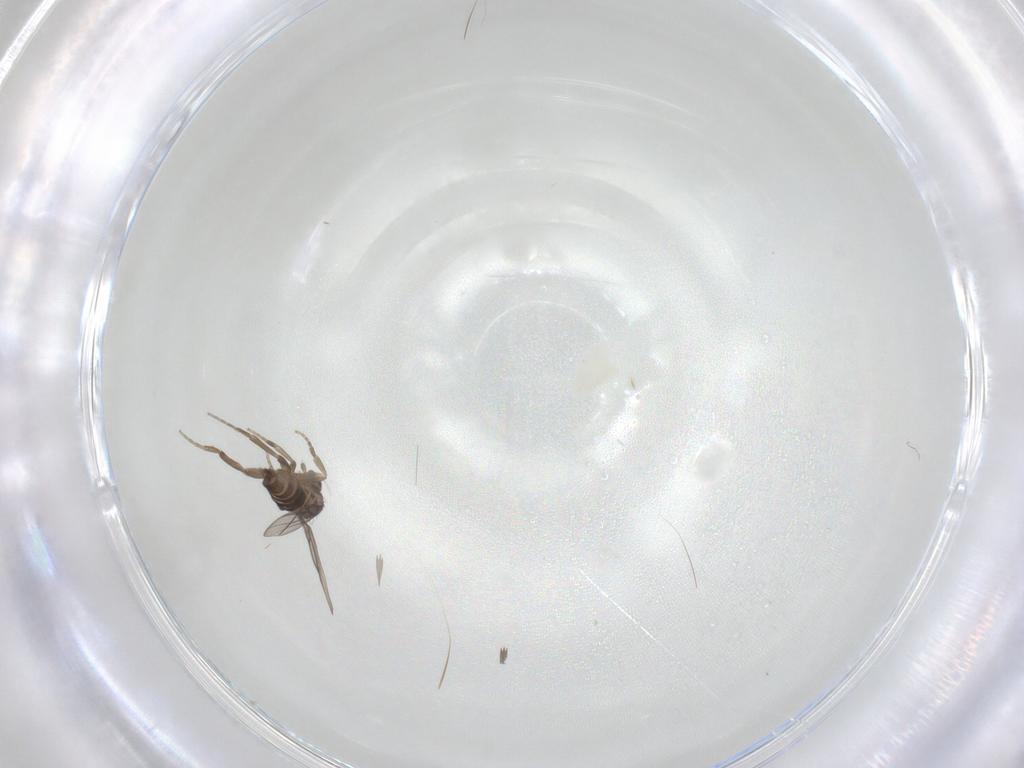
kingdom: Animalia
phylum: Arthropoda
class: Insecta
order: Diptera
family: Phoridae
